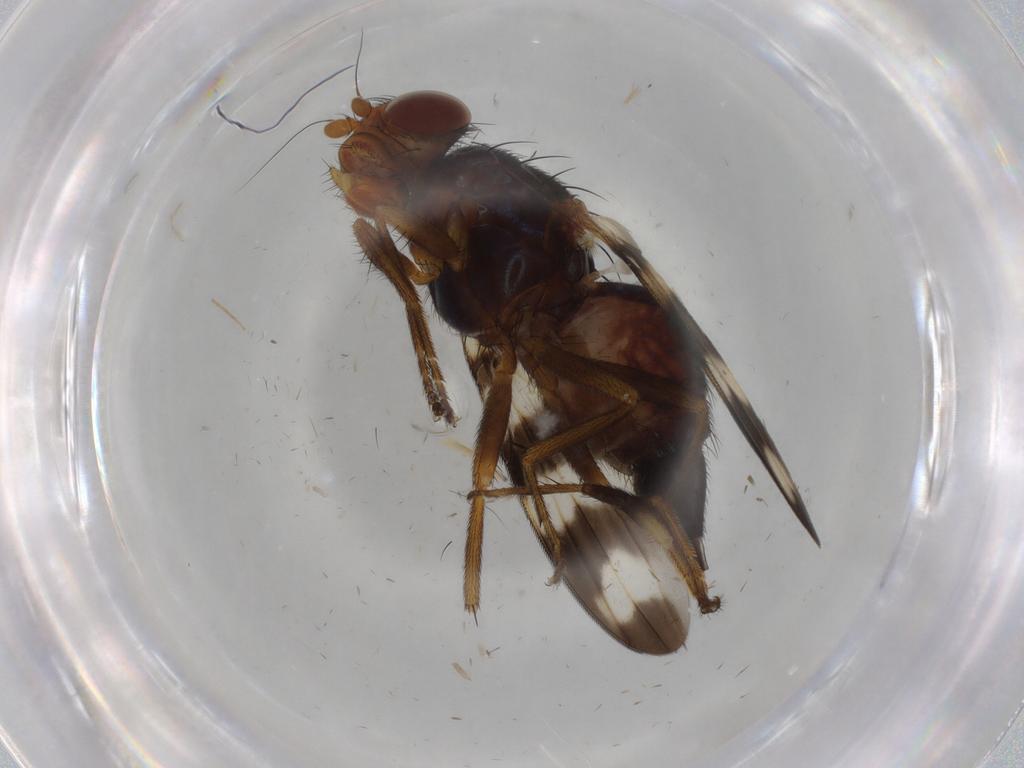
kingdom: Animalia
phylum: Arthropoda
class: Insecta
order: Diptera
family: Ulidiidae
